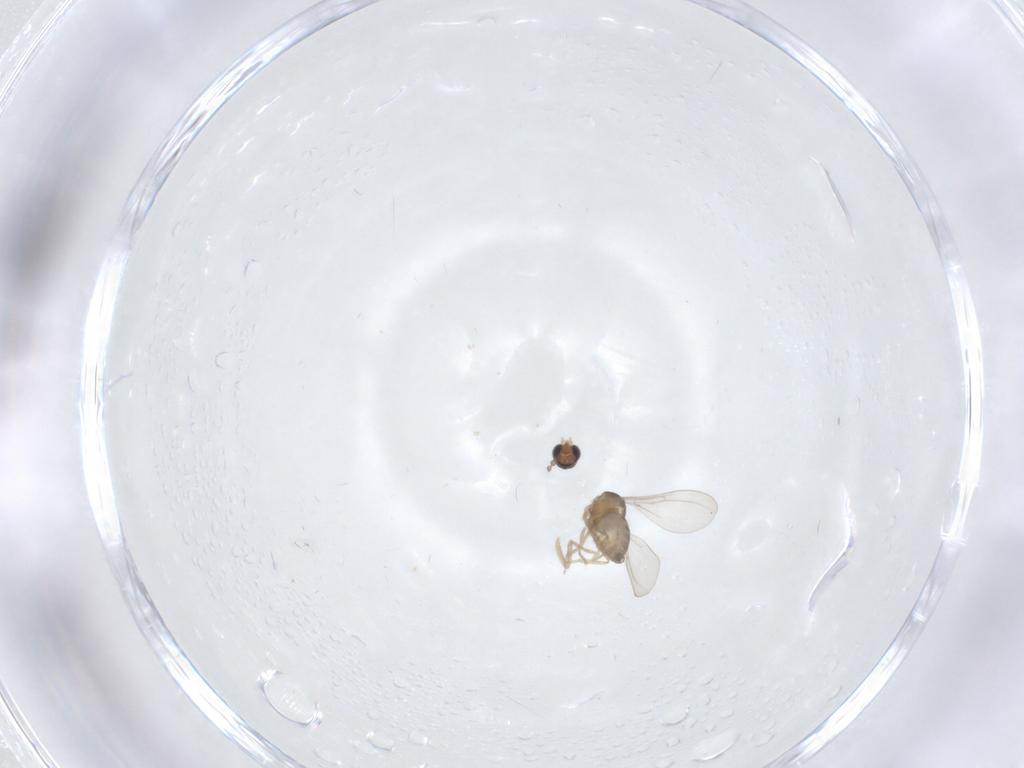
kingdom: Animalia
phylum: Arthropoda
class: Insecta
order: Diptera
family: Cecidomyiidae
